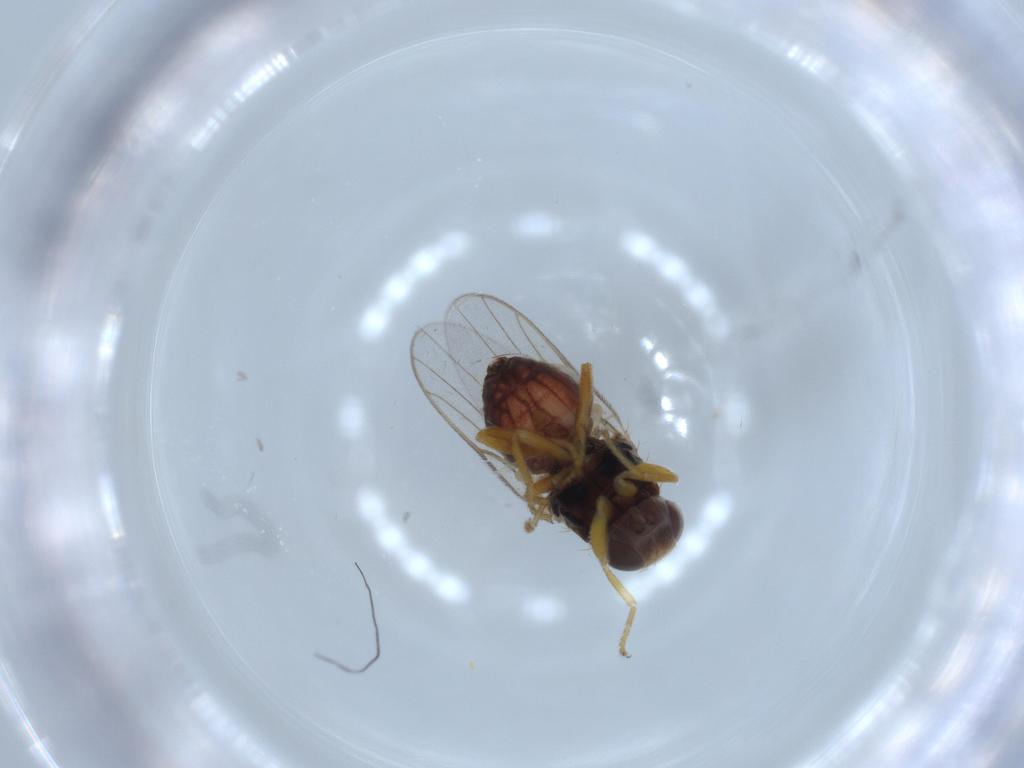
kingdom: Animalia
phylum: Arthropoda
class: Insecta
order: Diptera
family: Chloropidae
